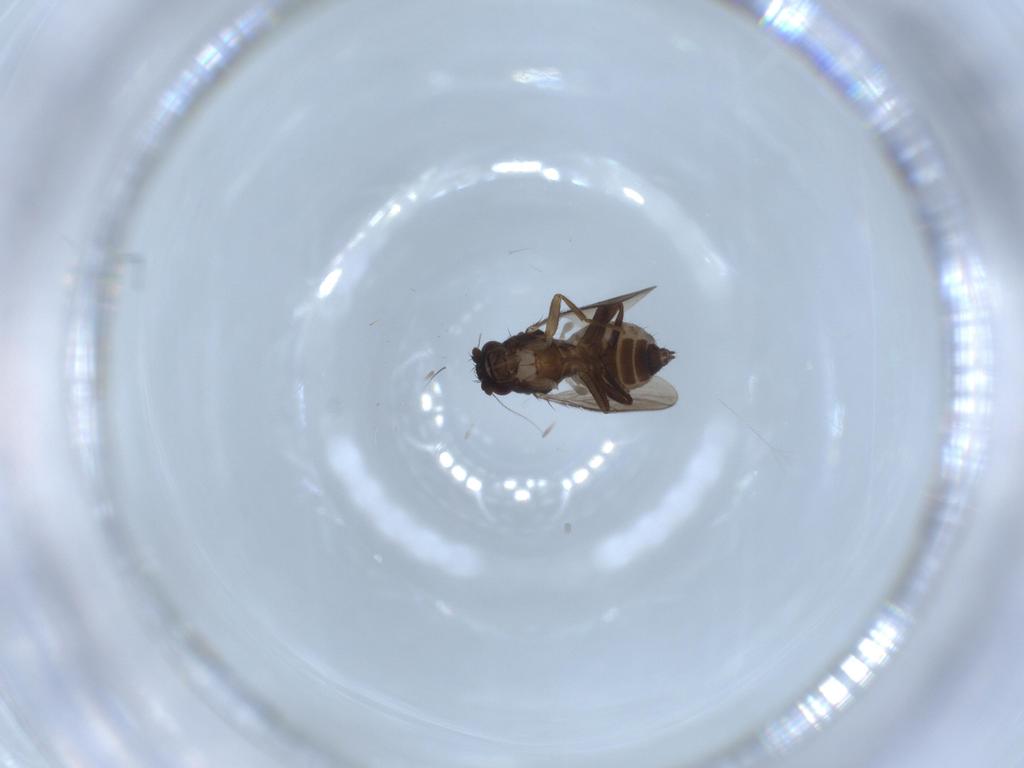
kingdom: Animalia
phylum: Arthropoda
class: Insecta
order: Diptera
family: Sphaeroceridae
